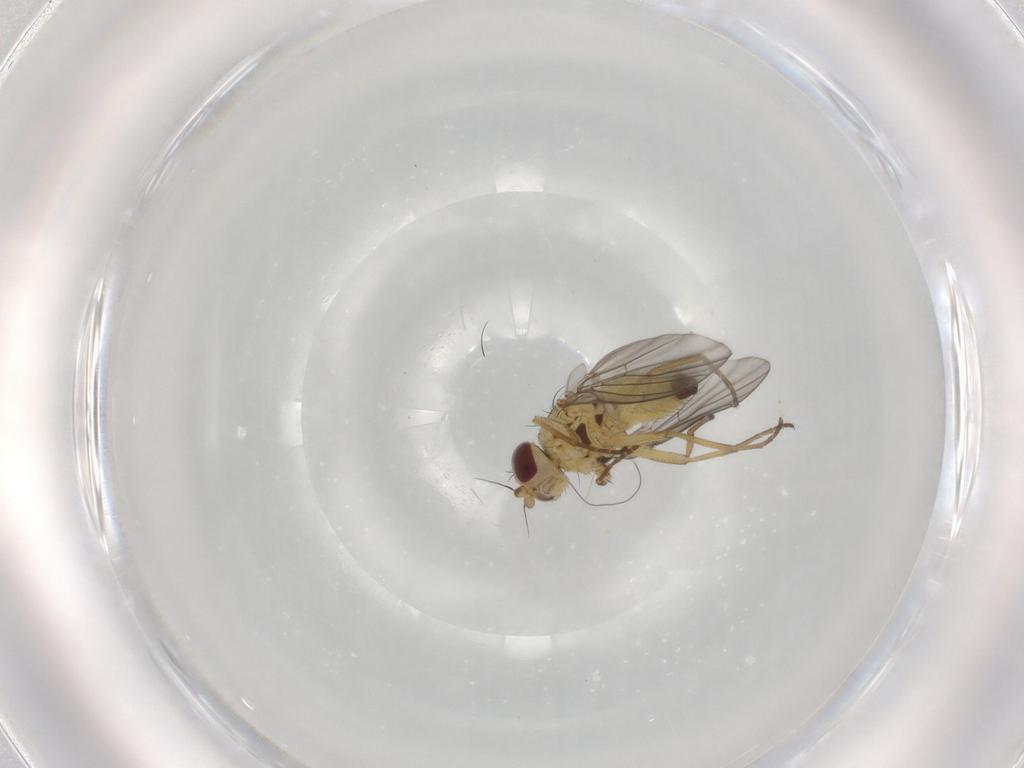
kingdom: Animalia
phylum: Arthropoda
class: Insecta
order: Diptera
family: Agromyzidae
